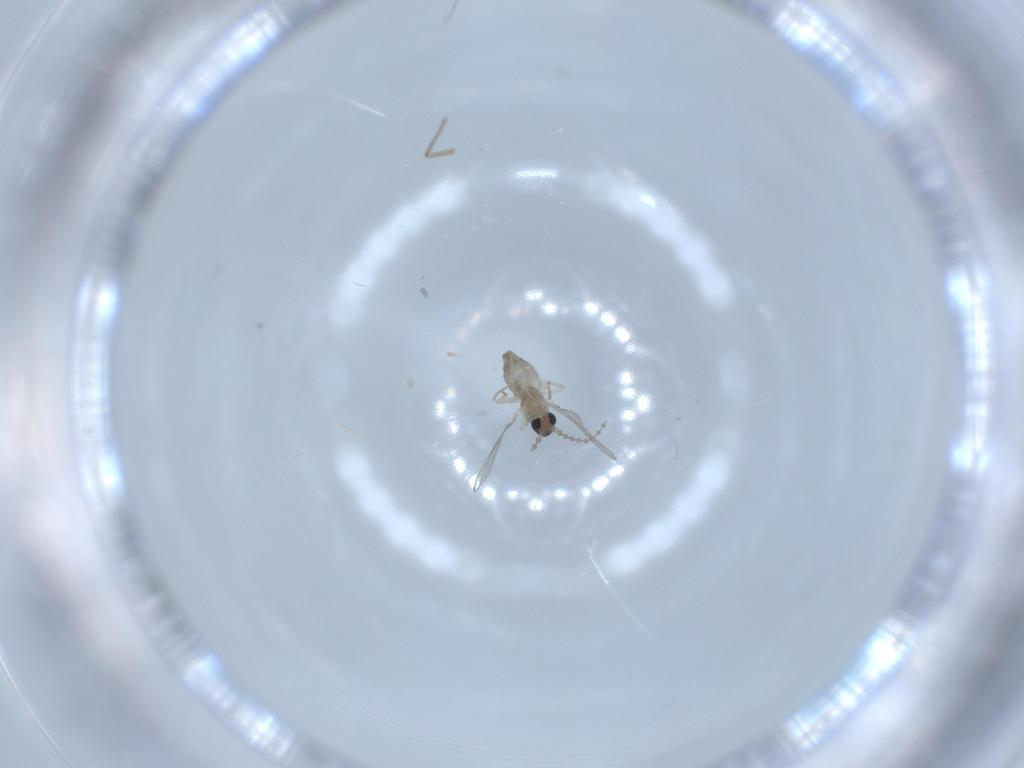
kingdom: Animalia
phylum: Arthropoda
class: Insecta
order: Diptera
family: Cecidomyiidae
